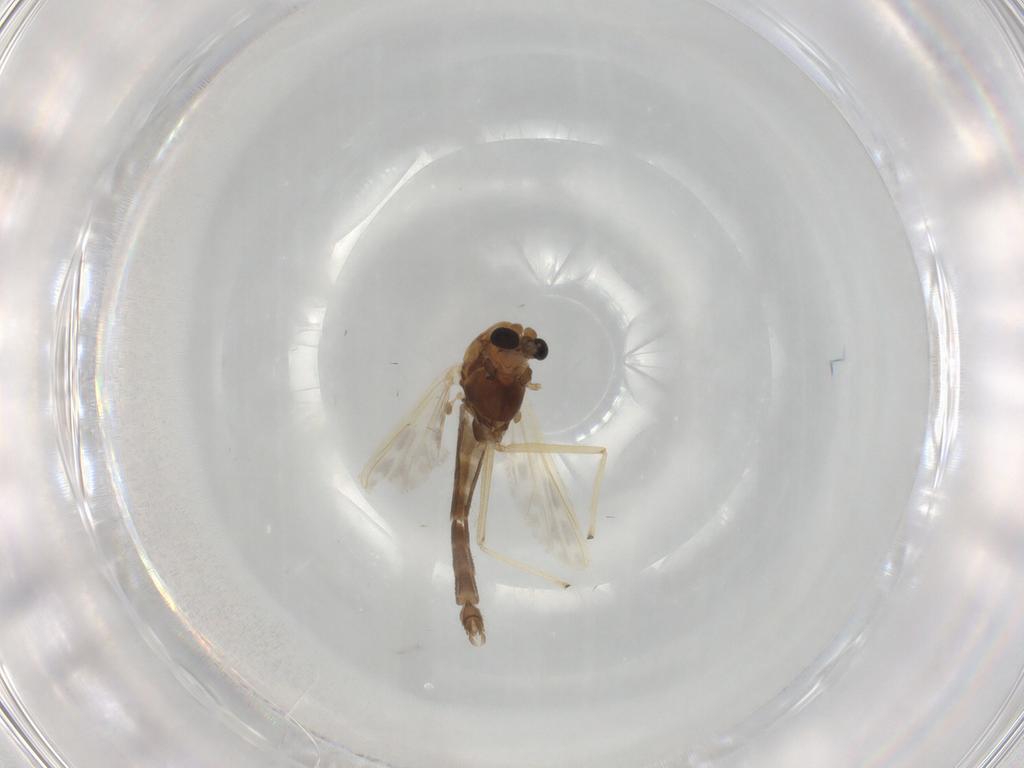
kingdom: Animalia
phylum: Arthropoda
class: Insecta
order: Diptera
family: Chironomidae
